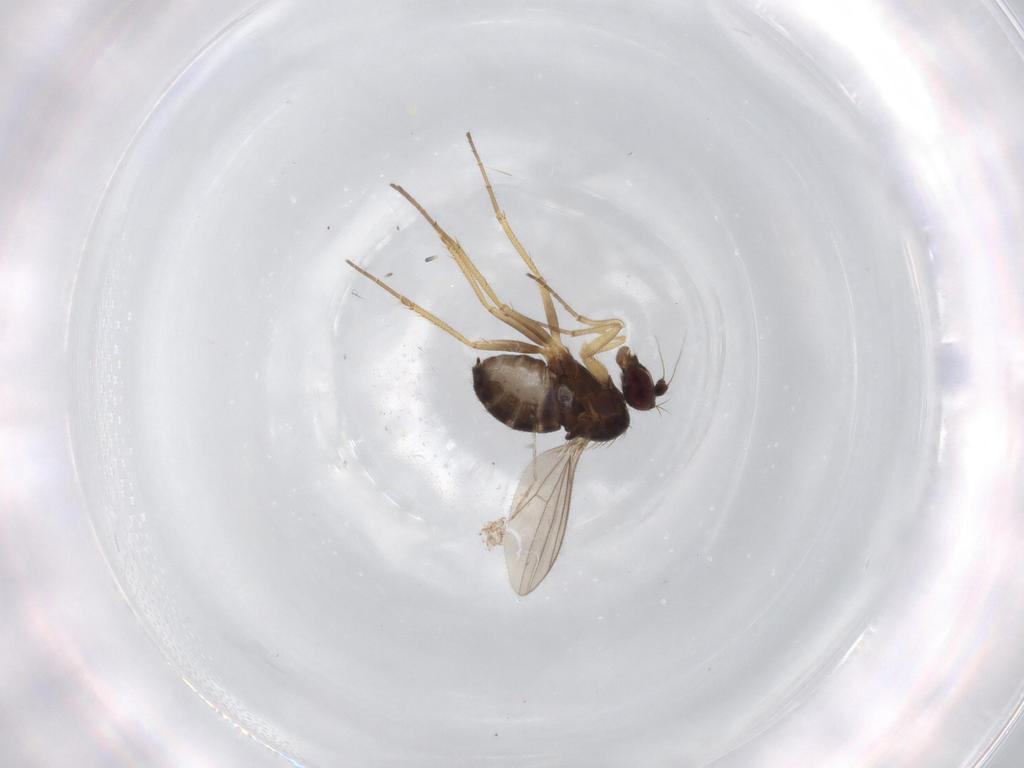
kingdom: Animalia
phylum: Arthropoda
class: Insecta
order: Diptera
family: Dolichopodidae
